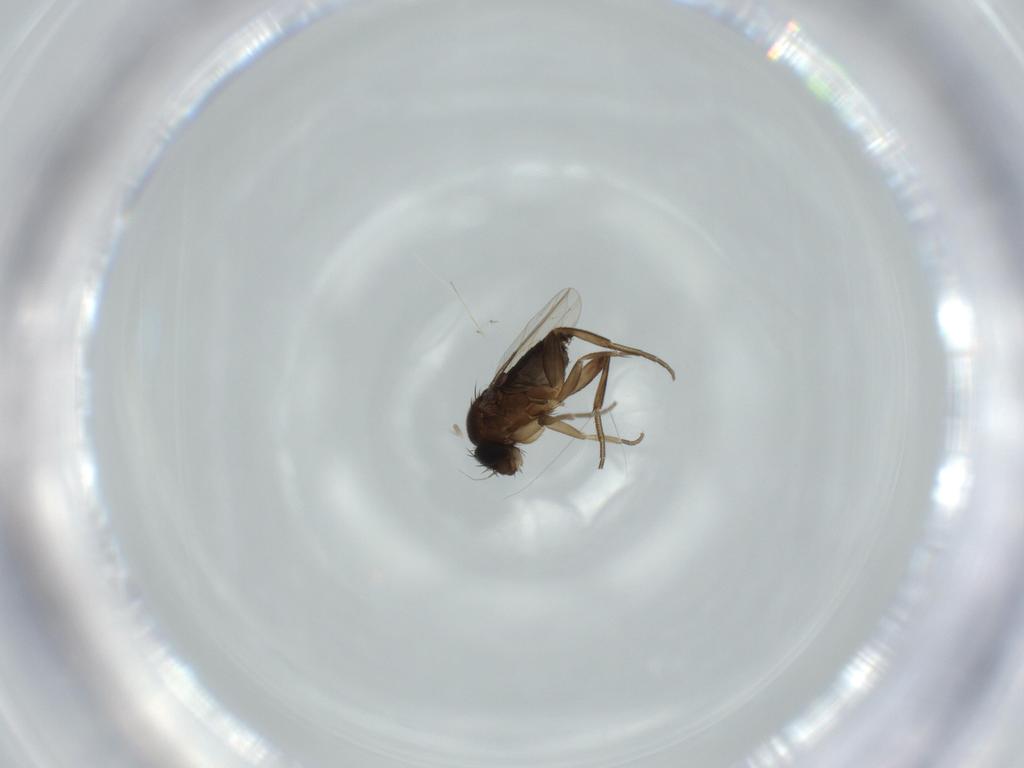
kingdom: Animalia
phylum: Arthropoda
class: Insecta
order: Diptera
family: Phoridae
